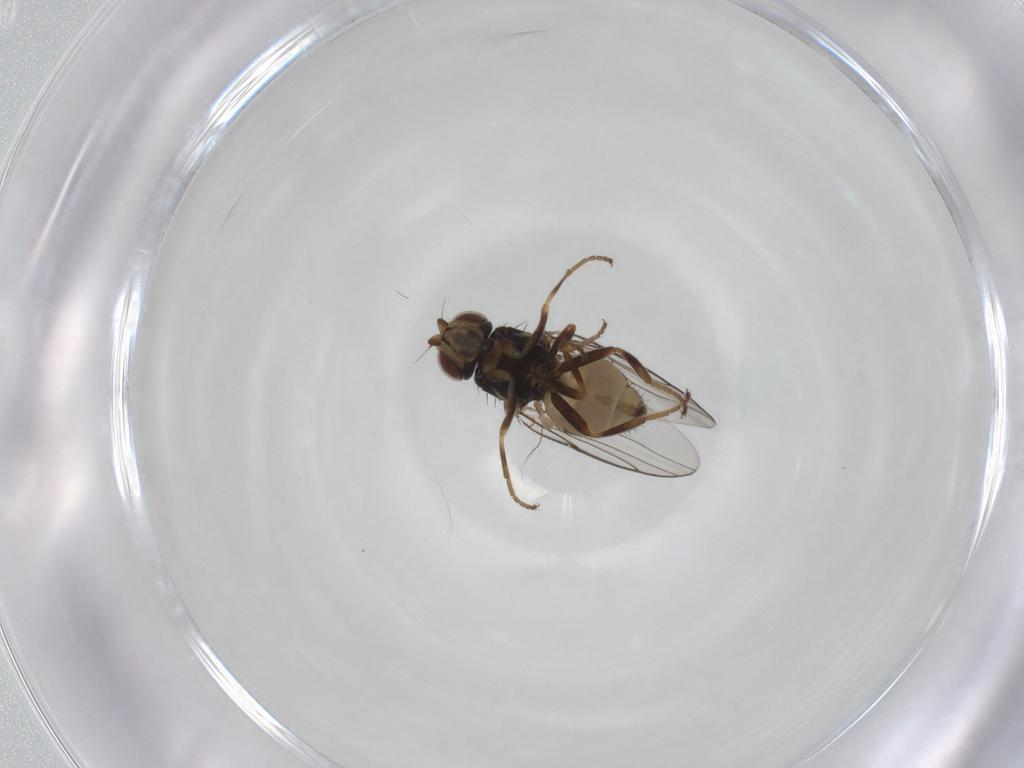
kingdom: Animalia
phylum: Arthropoda
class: Insecta
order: Diptera
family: Chloropidae
